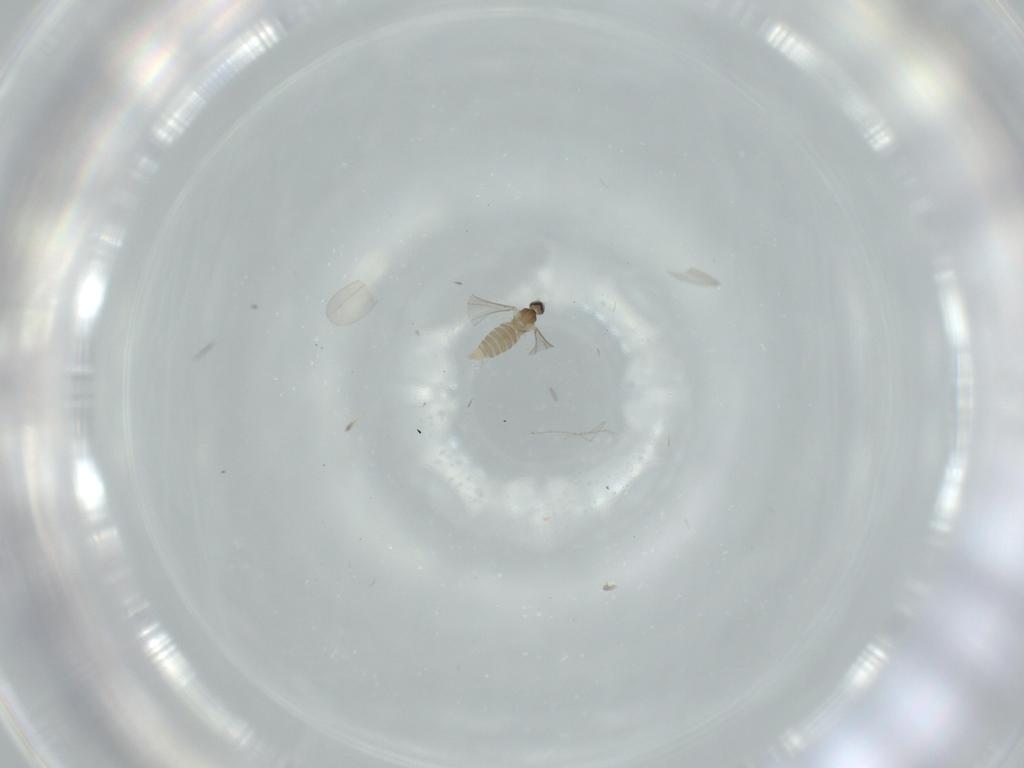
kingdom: Animalia
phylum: Arthropoda
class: Insecta
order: Diptera
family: Cecidomyiidae
